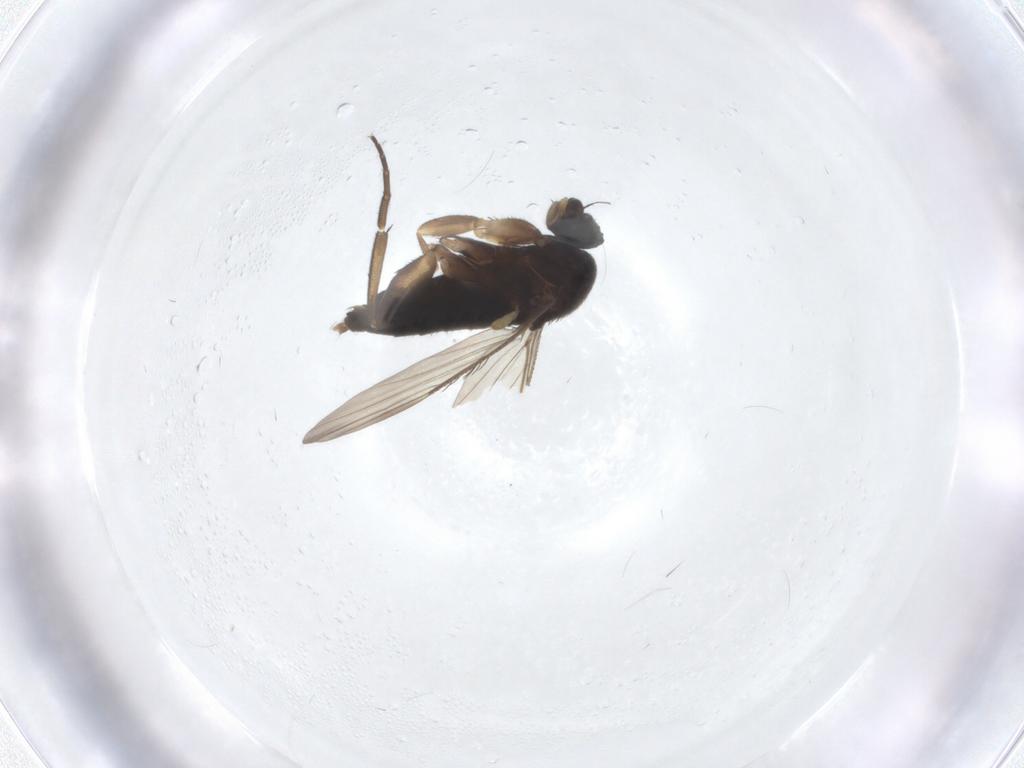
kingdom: Animalia
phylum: Arthropoda
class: Insecta
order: Diptera
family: Phoridae
